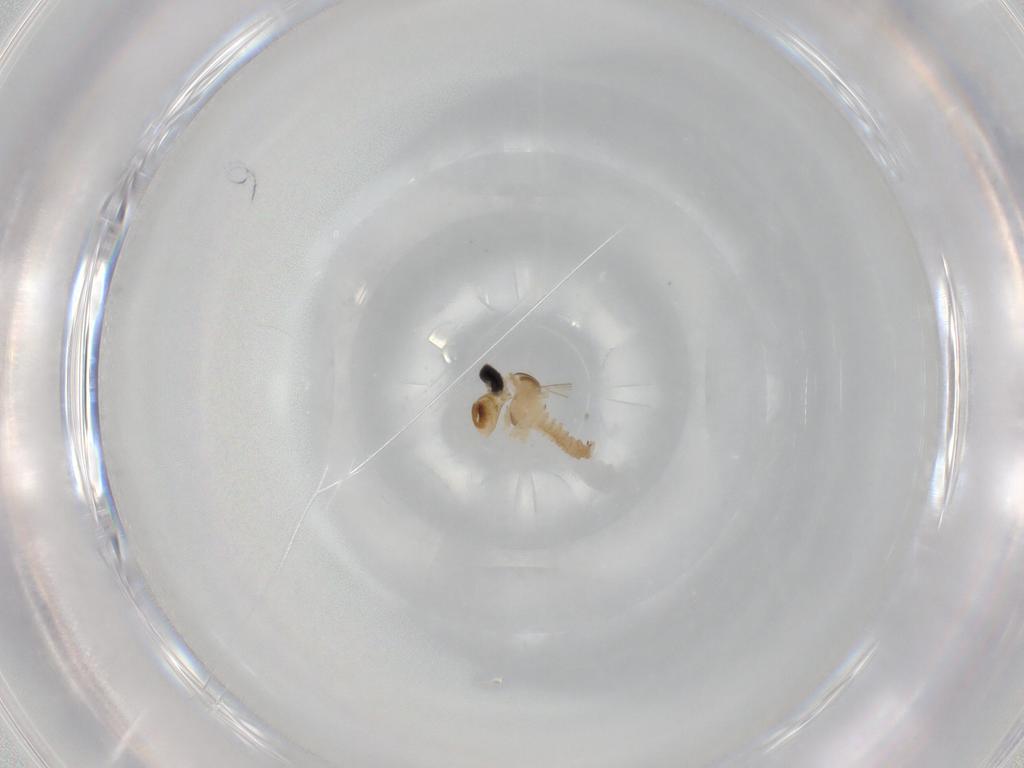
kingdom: Animalia
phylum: Arthropoda
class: Insecta
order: Diptera
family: Cecidomyiidae
